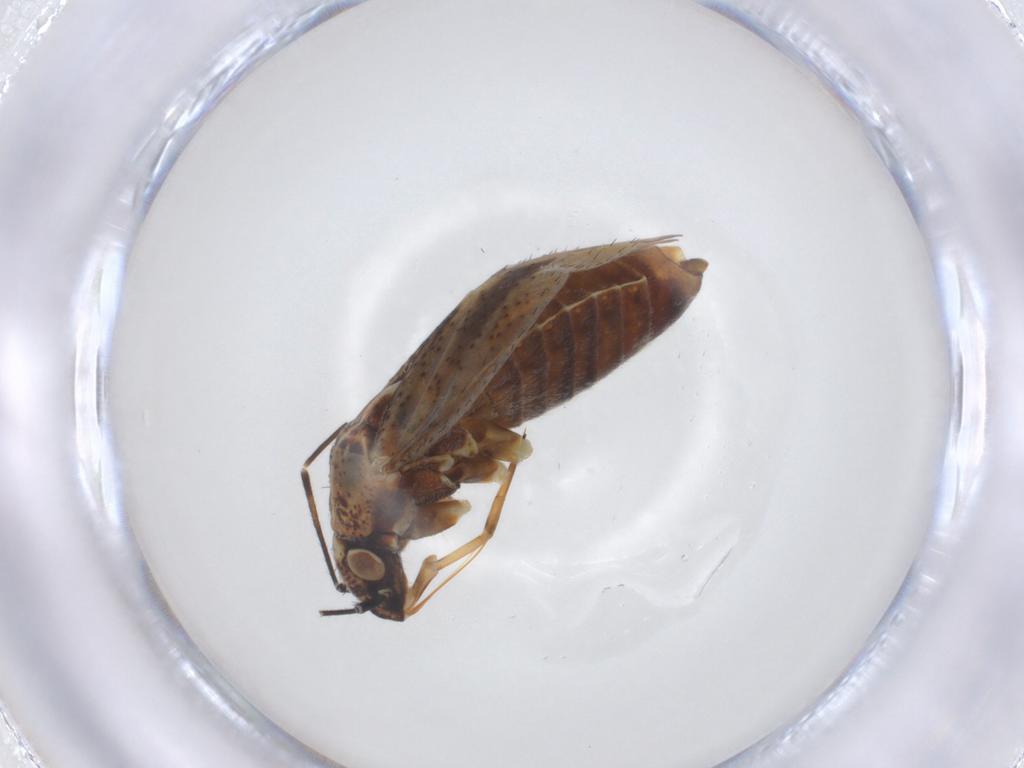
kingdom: Animalia
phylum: Arthropoda
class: Insecta
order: Hemiptera
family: Miridae
